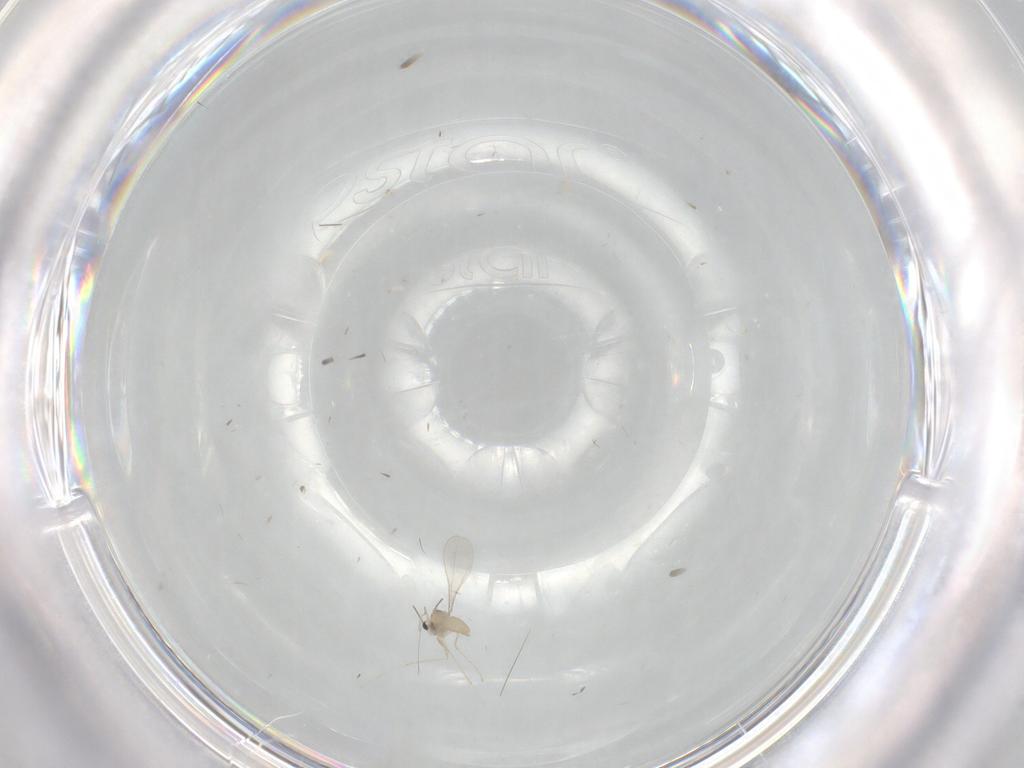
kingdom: Animalia
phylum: Arthropoda
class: Insecta
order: Diptera
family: Cecidomyiidae
